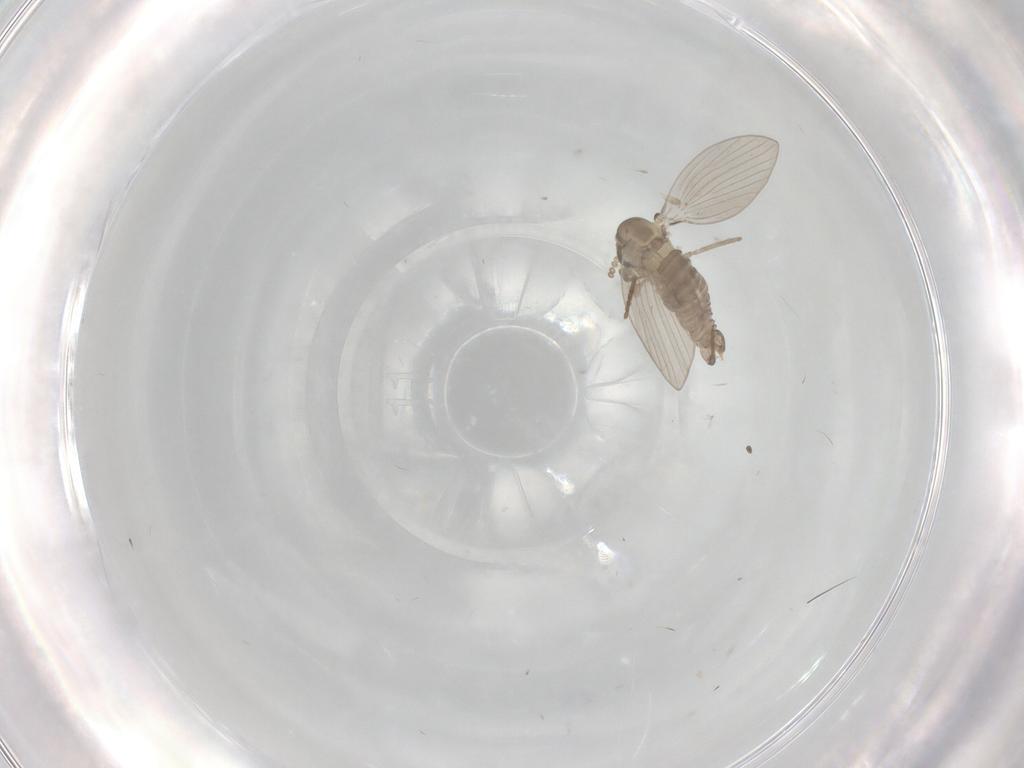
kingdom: Animalia
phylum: Arthropoda
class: Insecta
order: Diptera
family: Psychodidae
